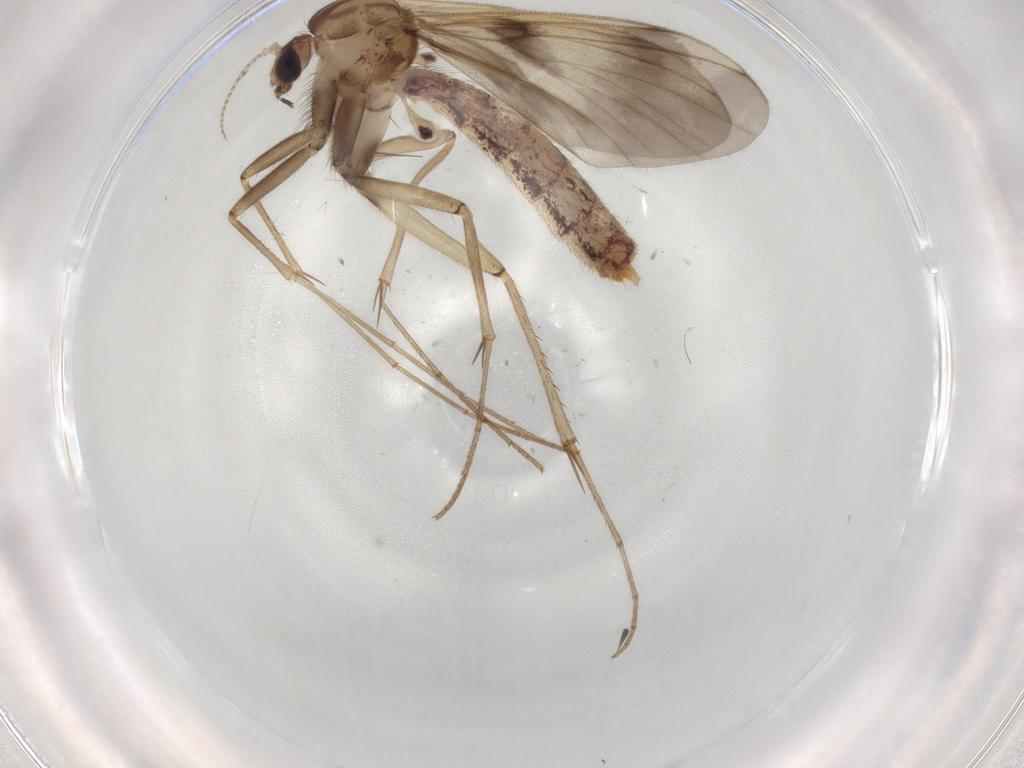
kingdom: Animalia
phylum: Arthropoda
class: Insecta
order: Diptera
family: Mycetophilidae
